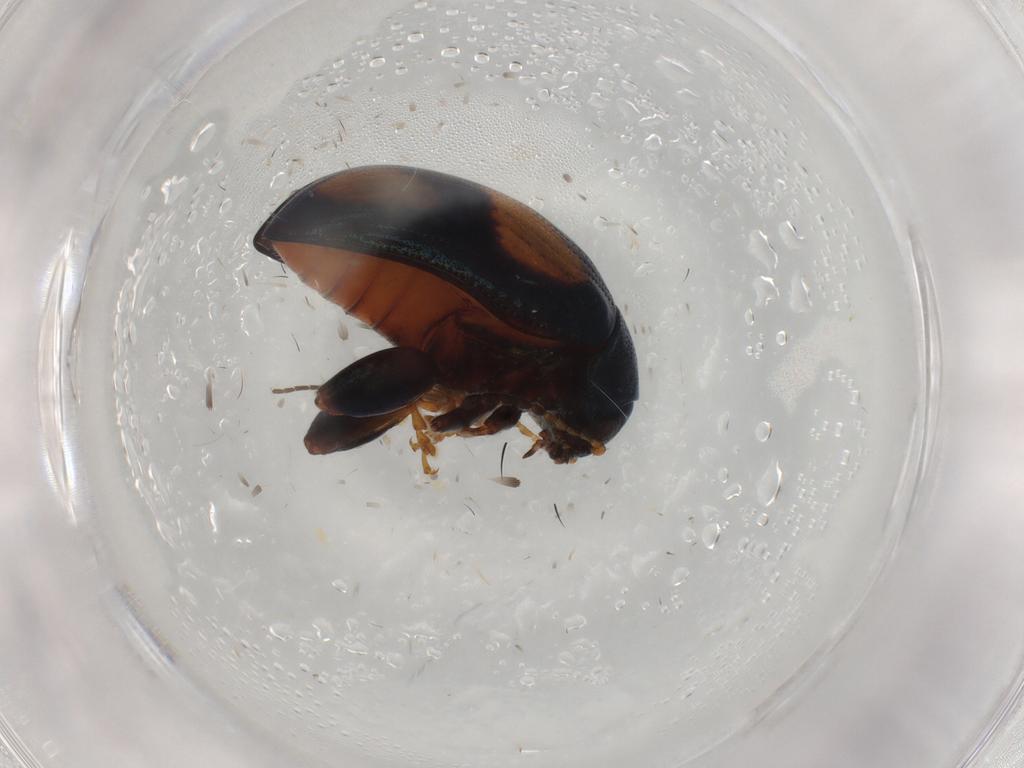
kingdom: Animalia
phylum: Arthropoda
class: Insecta
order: Coleoptera
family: Chrysomelidae
